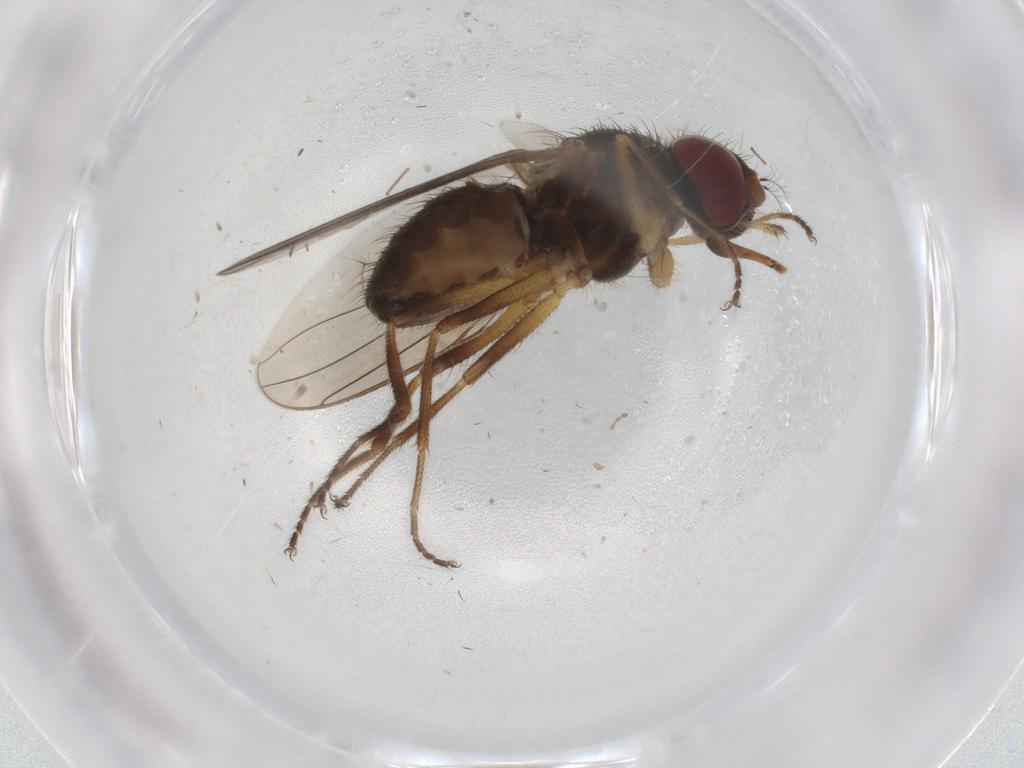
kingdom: Animalia
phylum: Arthropoda
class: Insecta
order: Diptera
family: Muscidae
